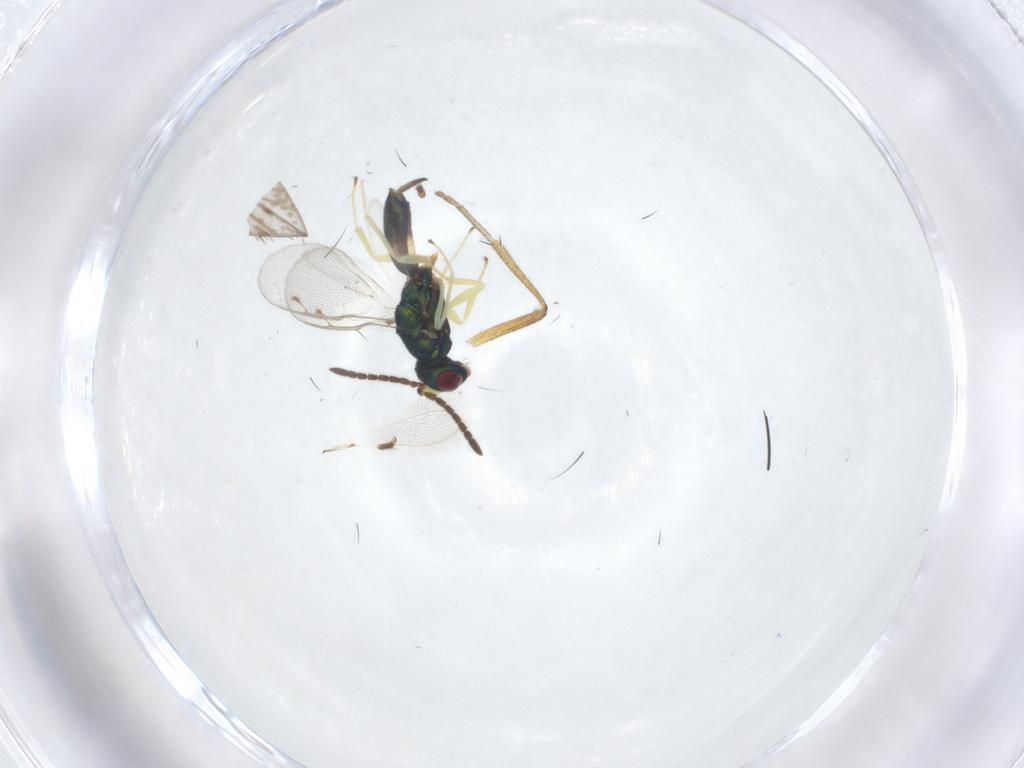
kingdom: Animalia
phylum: Arthropoda
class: Insecta
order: Hymenoptera
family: Pteromalidae
